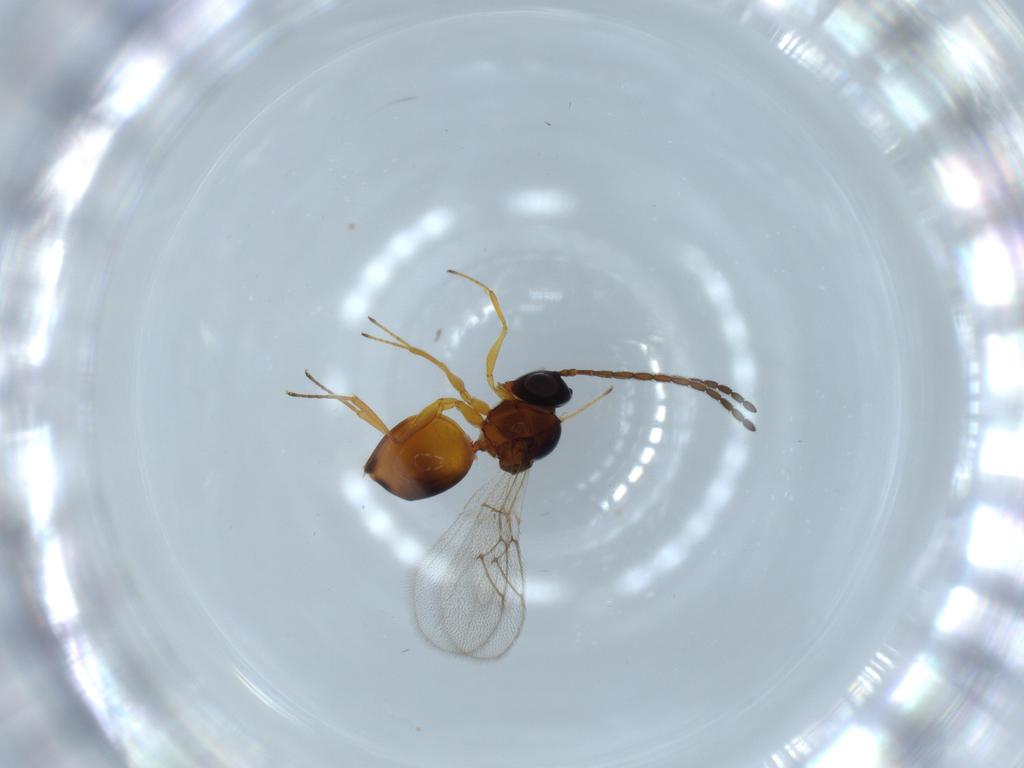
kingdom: Animalia
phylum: Arthropoda
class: Insecta
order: Hymenoptera
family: Figitidae
